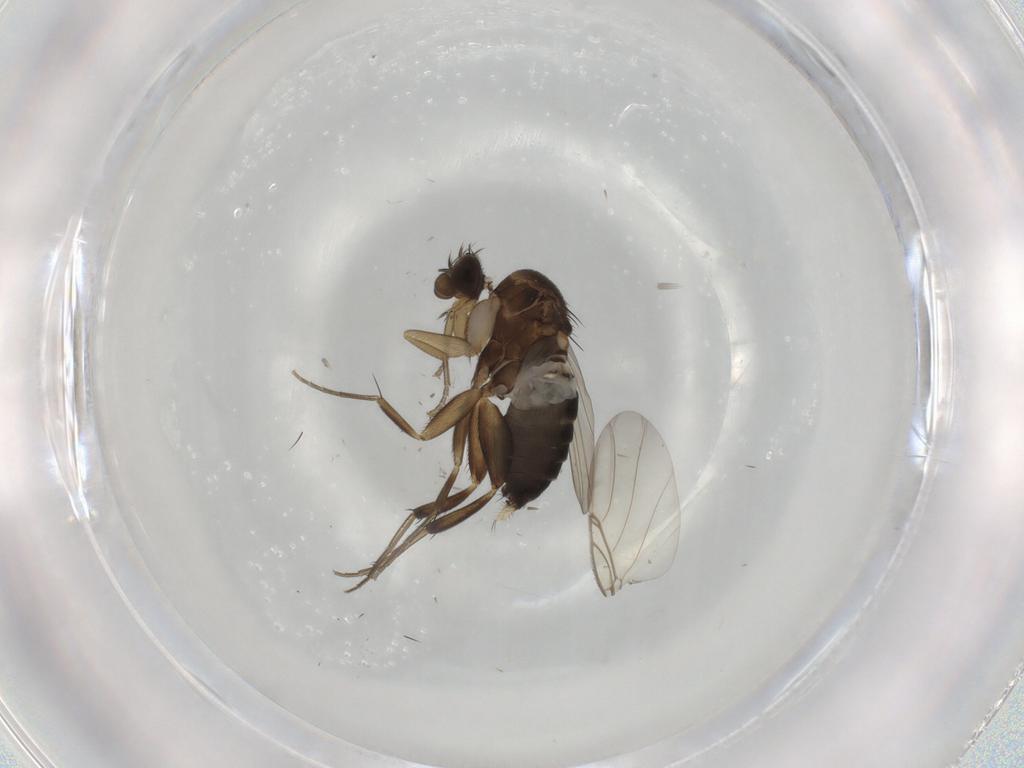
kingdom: Animalia
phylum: Arthropoda
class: Insecta
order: Diptera
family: Phoridae
